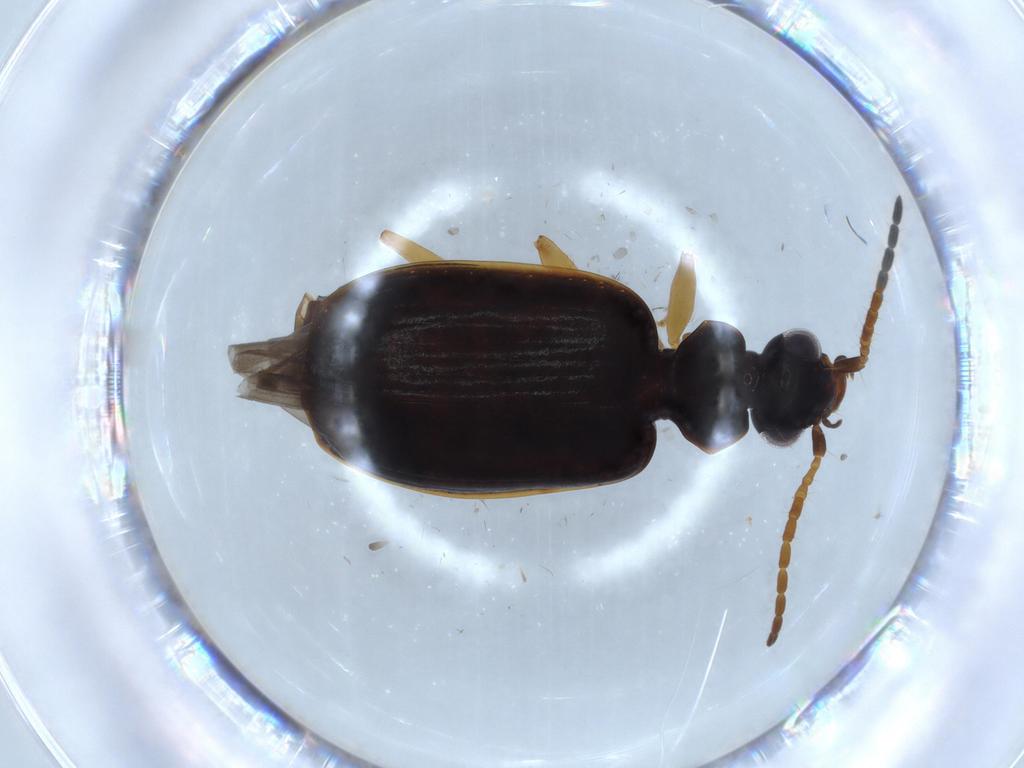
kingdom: Animalia
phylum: Arthropoda
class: Insecta
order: Coleoptera
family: Carabidae
